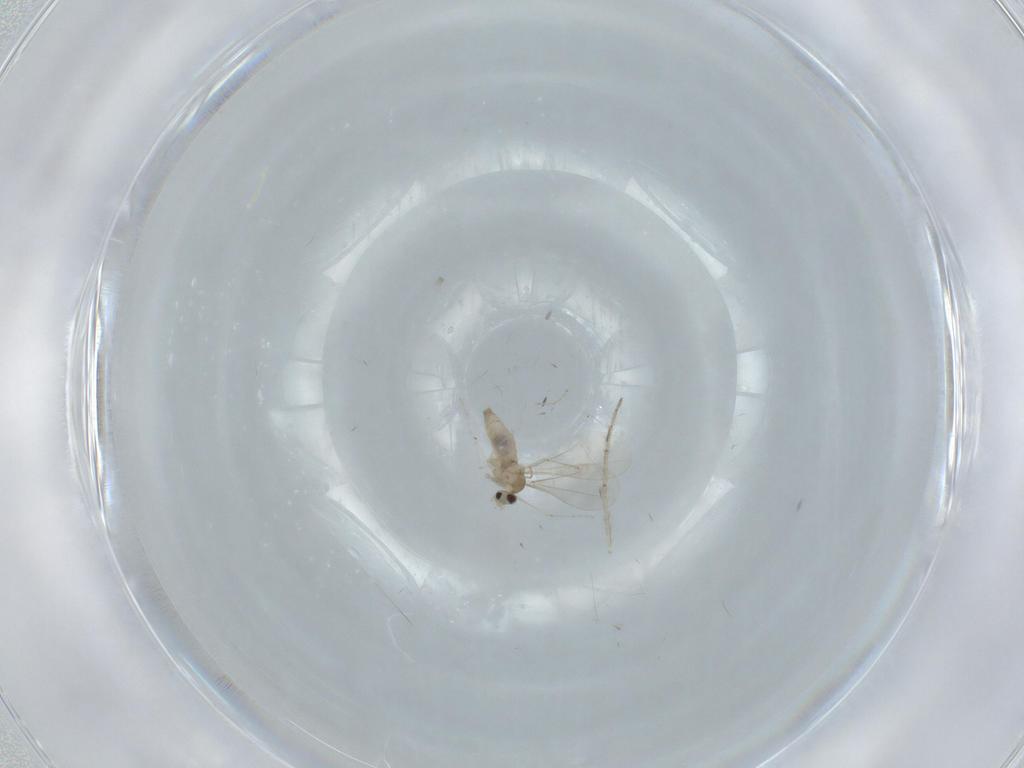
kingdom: Animalia
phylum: Arthropoda
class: Insecta
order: Diptera
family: Cecidomyiidae
